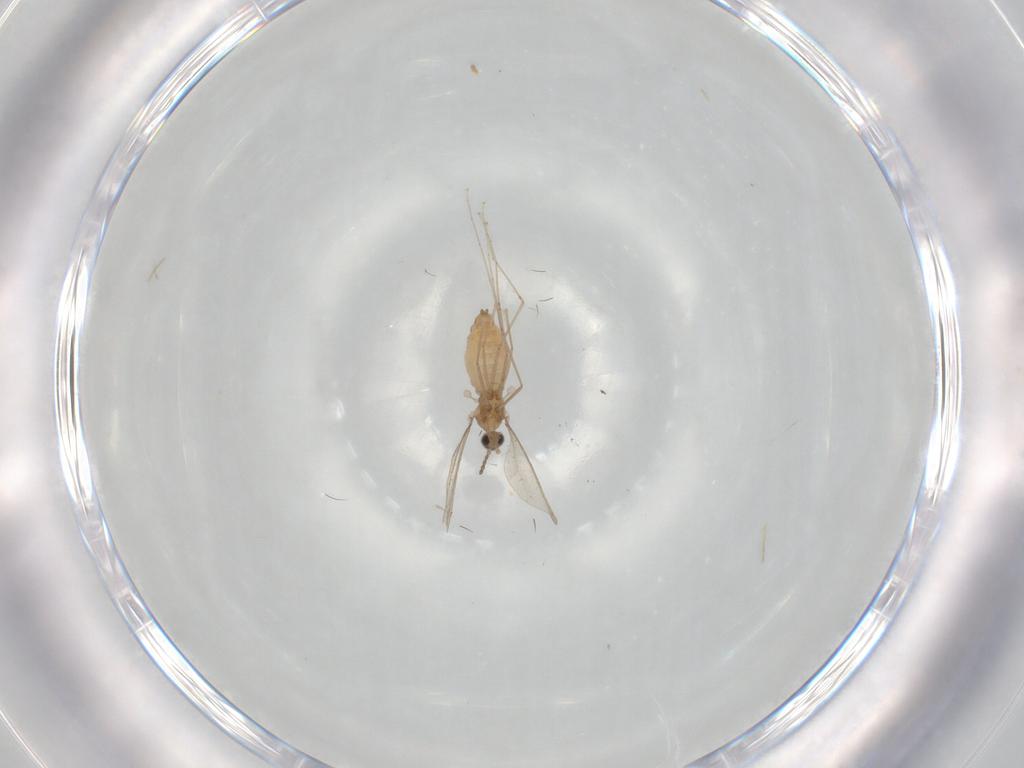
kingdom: Animalia
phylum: Arthropoda
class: Insecta
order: Diptera
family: Cecidomyiidae
